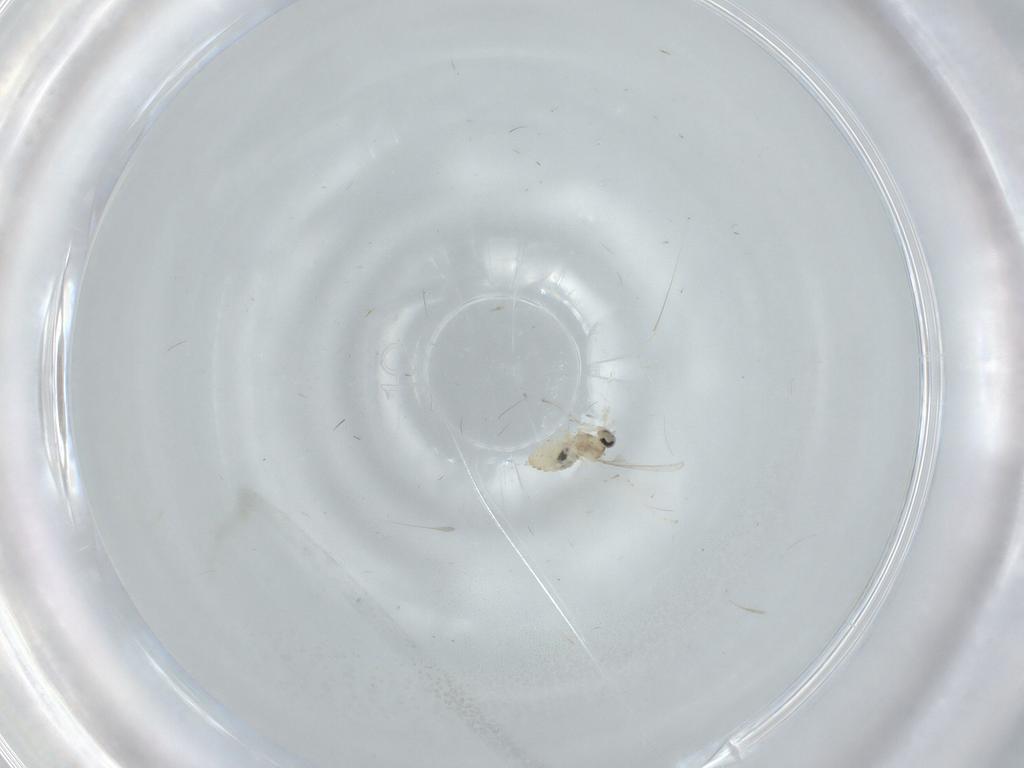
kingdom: Animalia
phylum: Arthropoda
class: Insecta
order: Diptera
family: Cecidomyiidae
